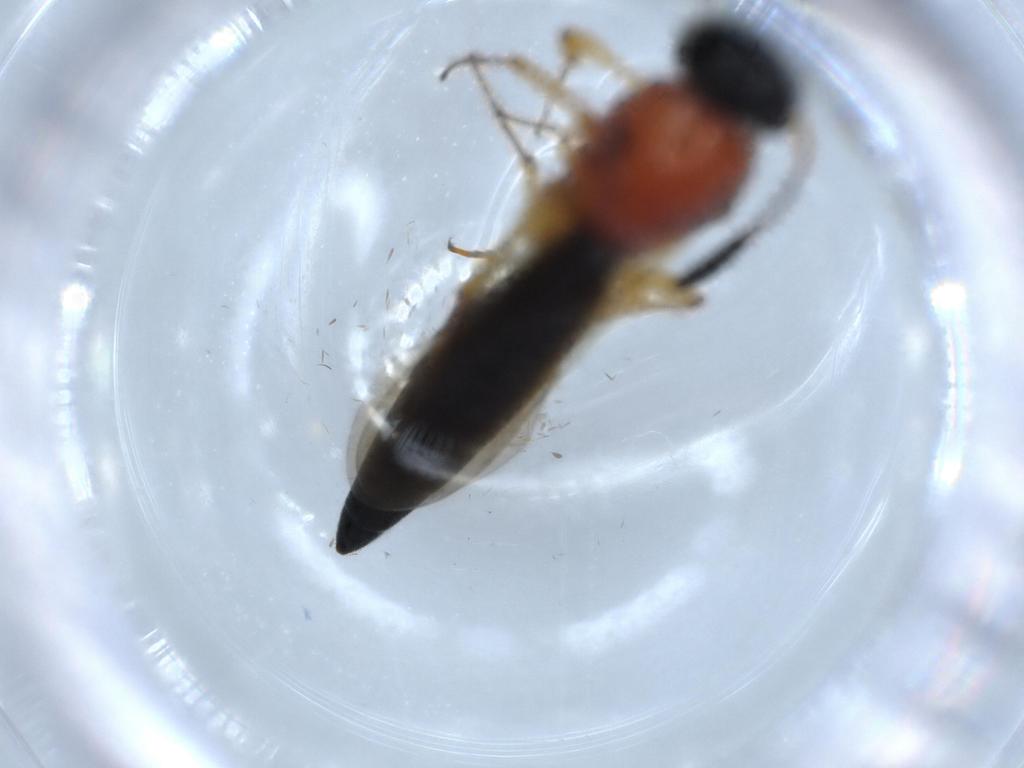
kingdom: Animalia
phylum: Arthropoda
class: Insecta
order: Hymenoptera
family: Scelionidae
